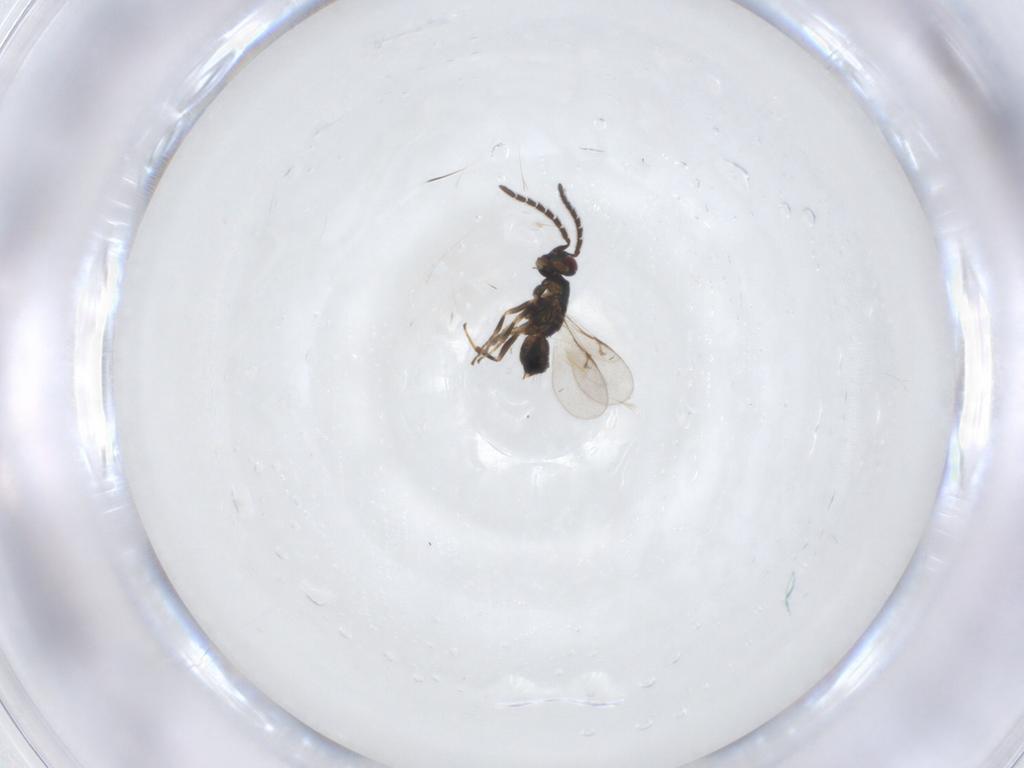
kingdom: Animalia
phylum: Arthropoda
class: Insecta
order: Hymenoptera
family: Encyrtidae
